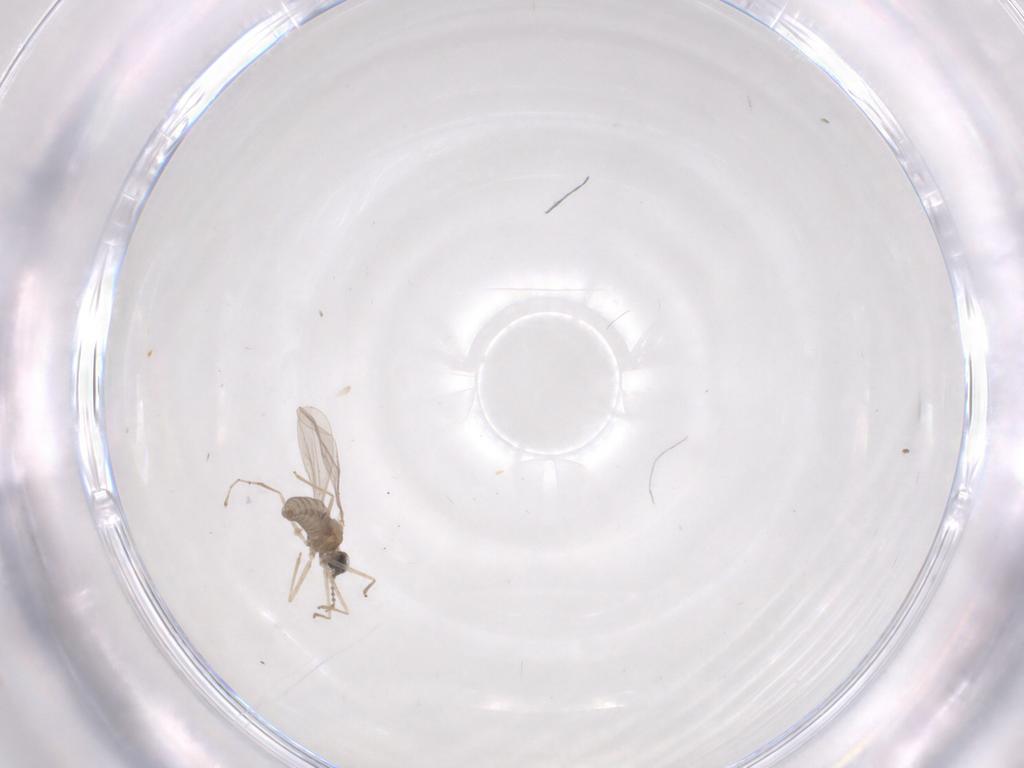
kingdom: Animalia
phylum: Arthropoda
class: Insecta
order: Diptera
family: Cecidomyiidae
